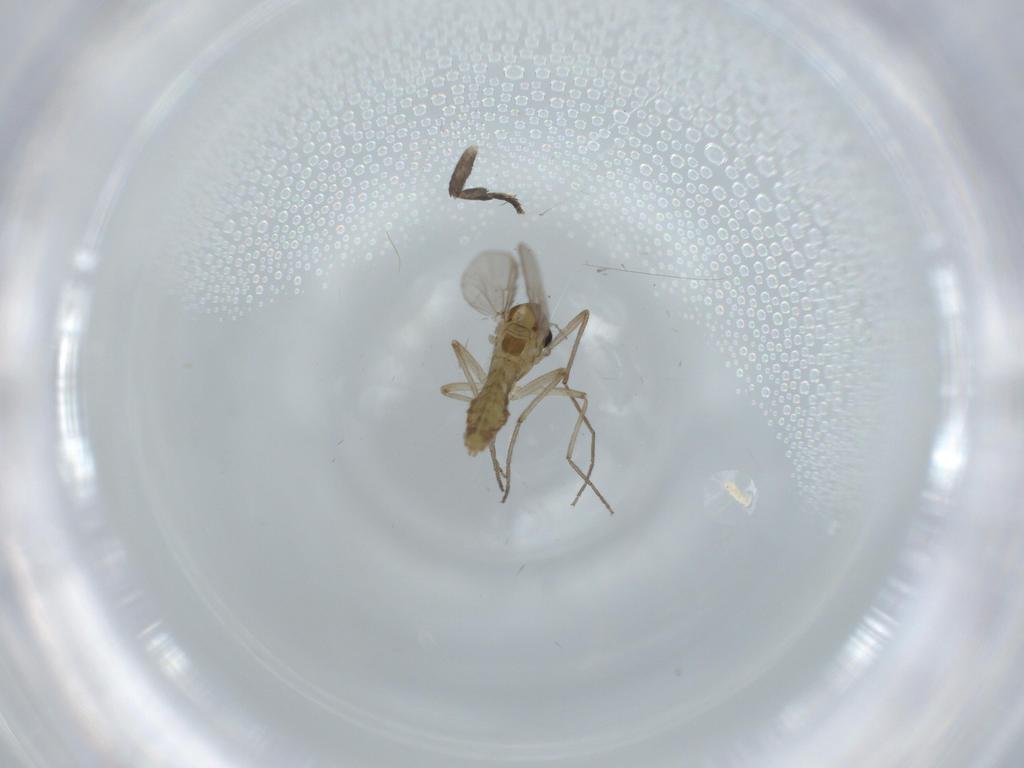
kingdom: Animalia
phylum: Arthropoda
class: Insecta
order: Diptera
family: Chironomidae
